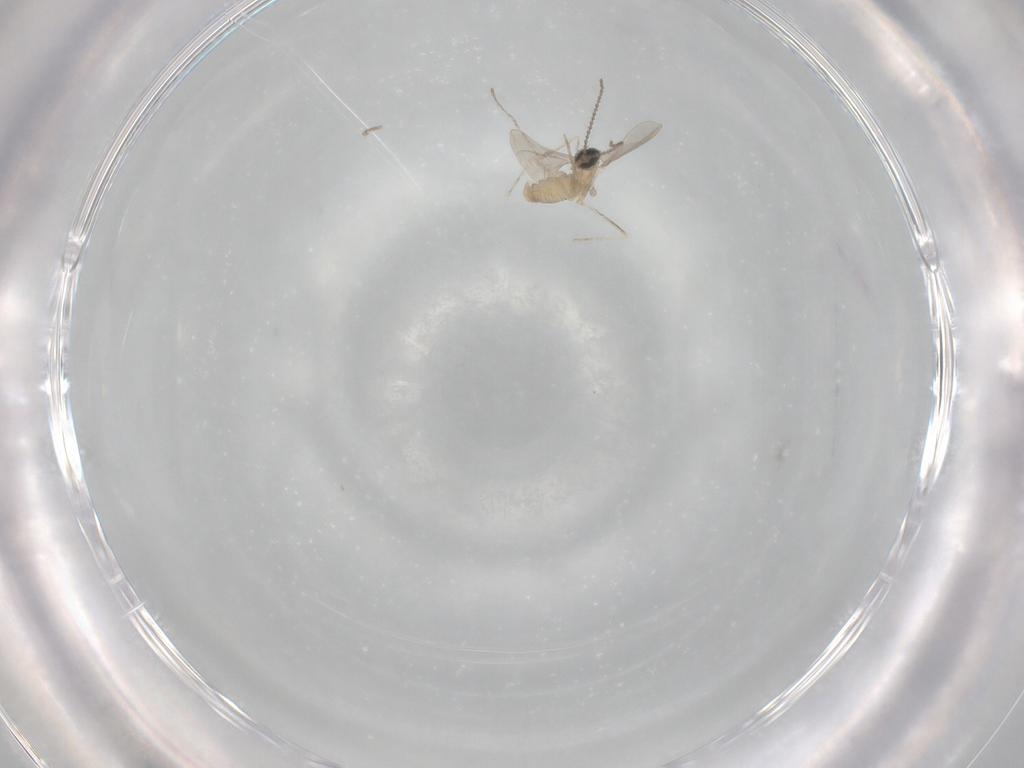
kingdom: Animalia
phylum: Arthropoda
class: Insecta
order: Diptera
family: Cecidomyiidae
